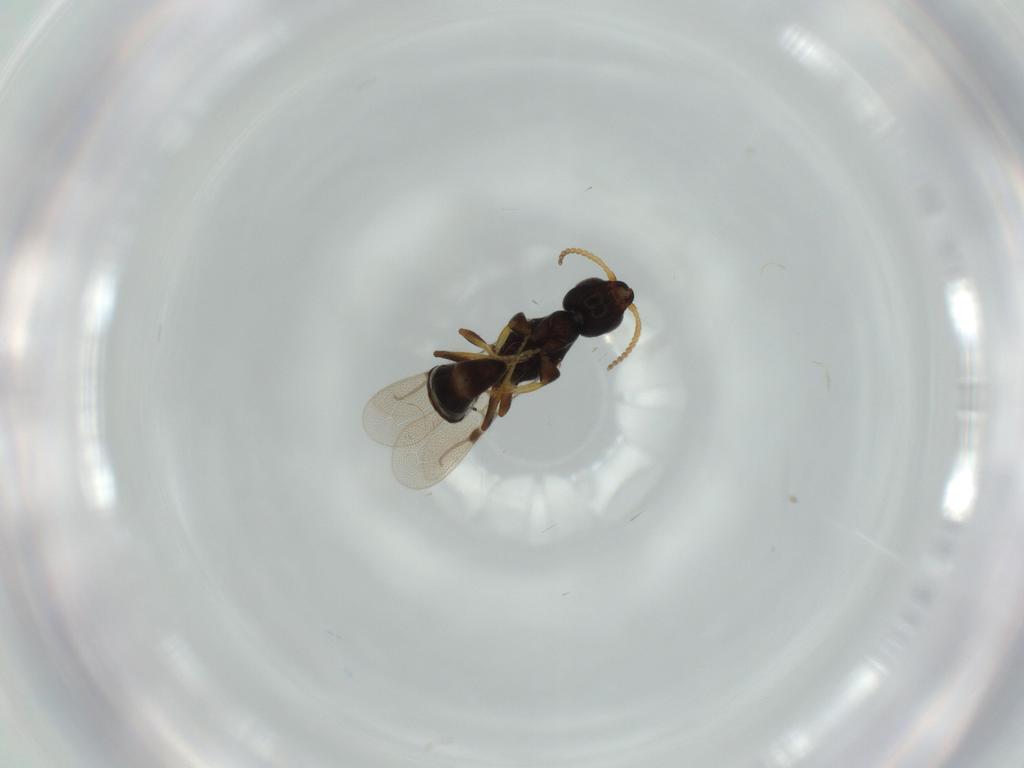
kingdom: Animalia
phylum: Arthropoda
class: Insecta
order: Hymenoptera
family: Bethylidae
